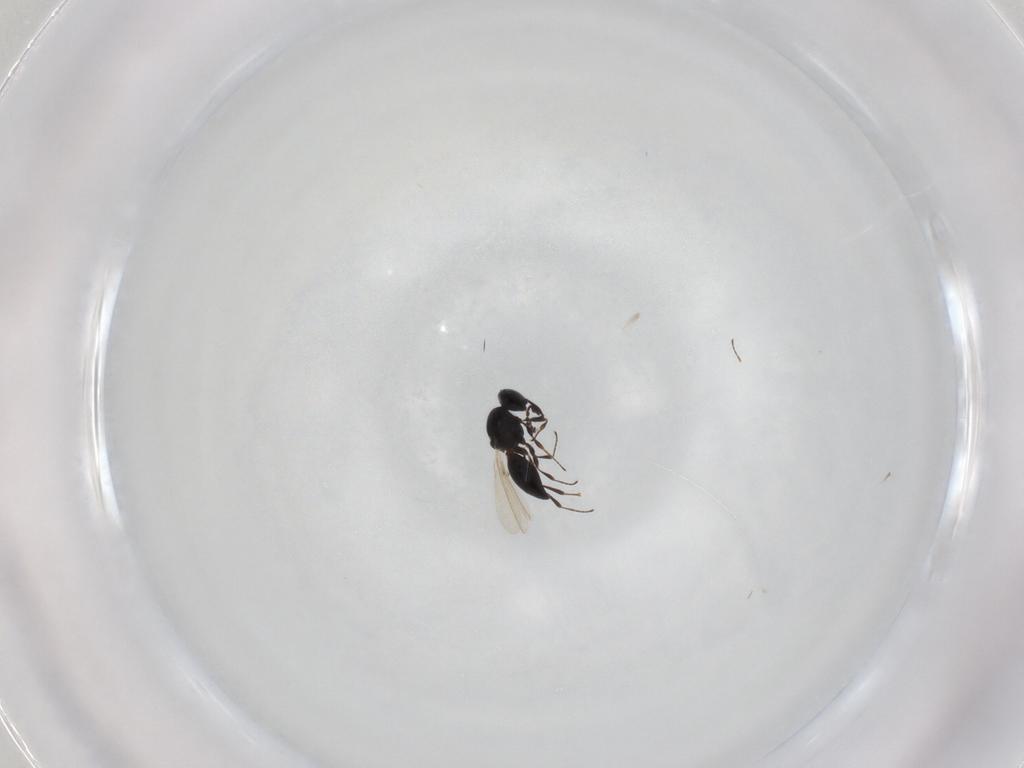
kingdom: Animalia
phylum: Arthropoda
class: Insecta
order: Hymenoptera
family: Platygastridae
